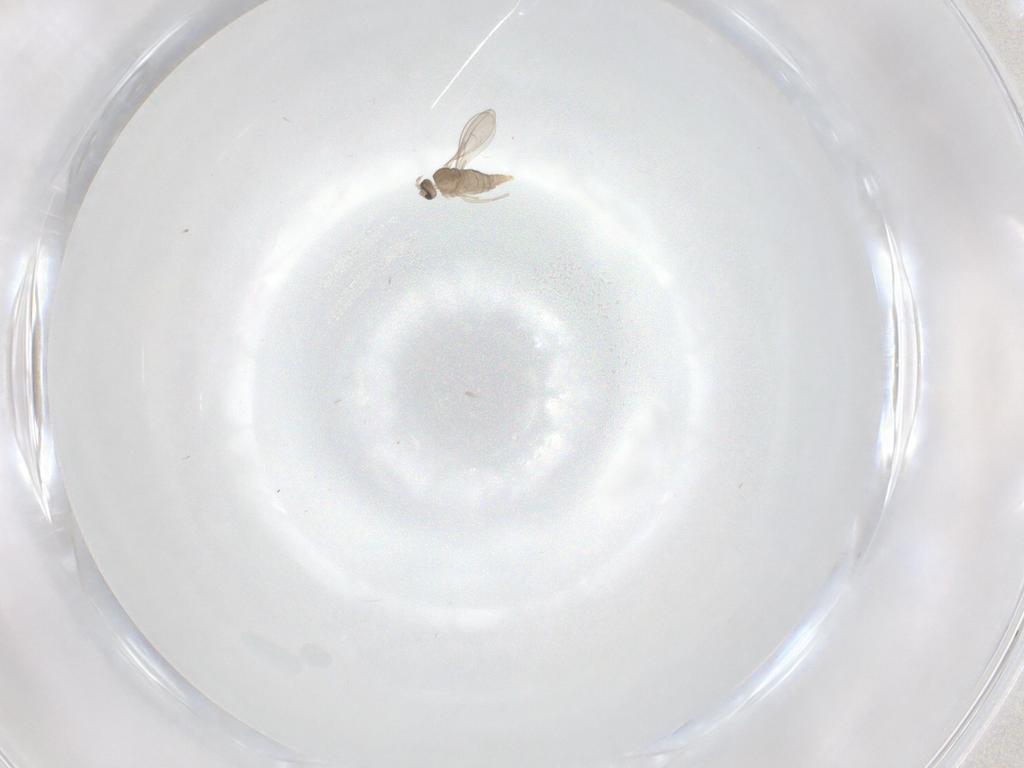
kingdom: Animalia
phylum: Arthropoda
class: Insecta
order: Diptera
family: Cecidomyiidae
